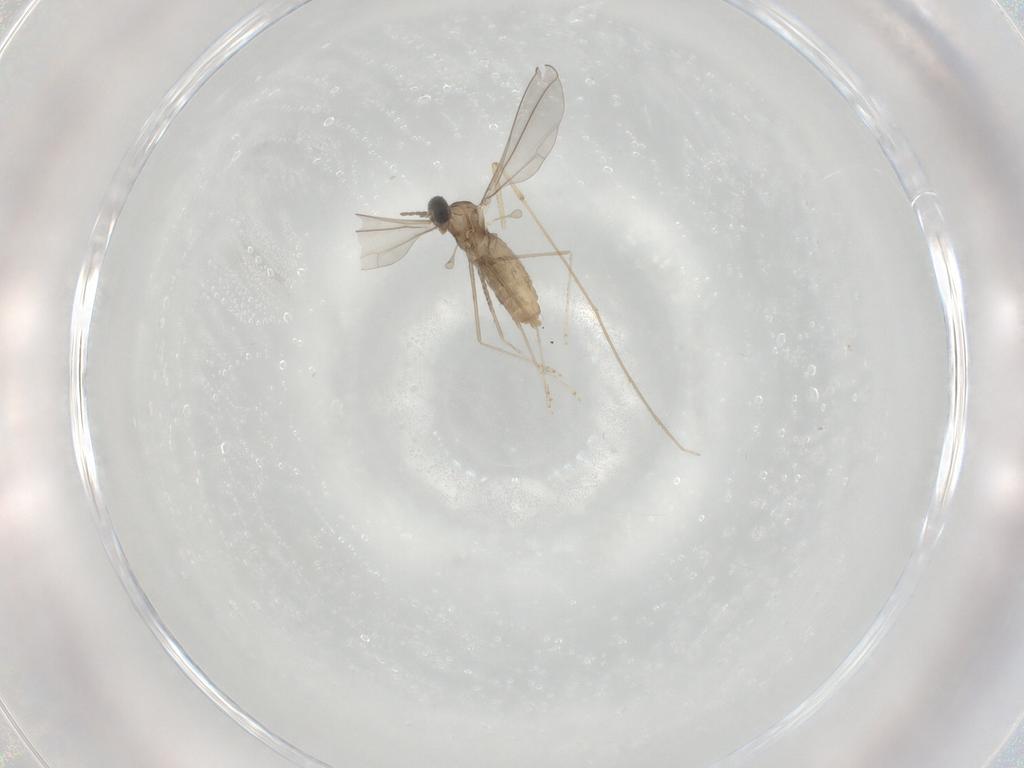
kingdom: Animalia
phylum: Arthropoda
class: Insecta
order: Diptera
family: Cecidomyiidae
